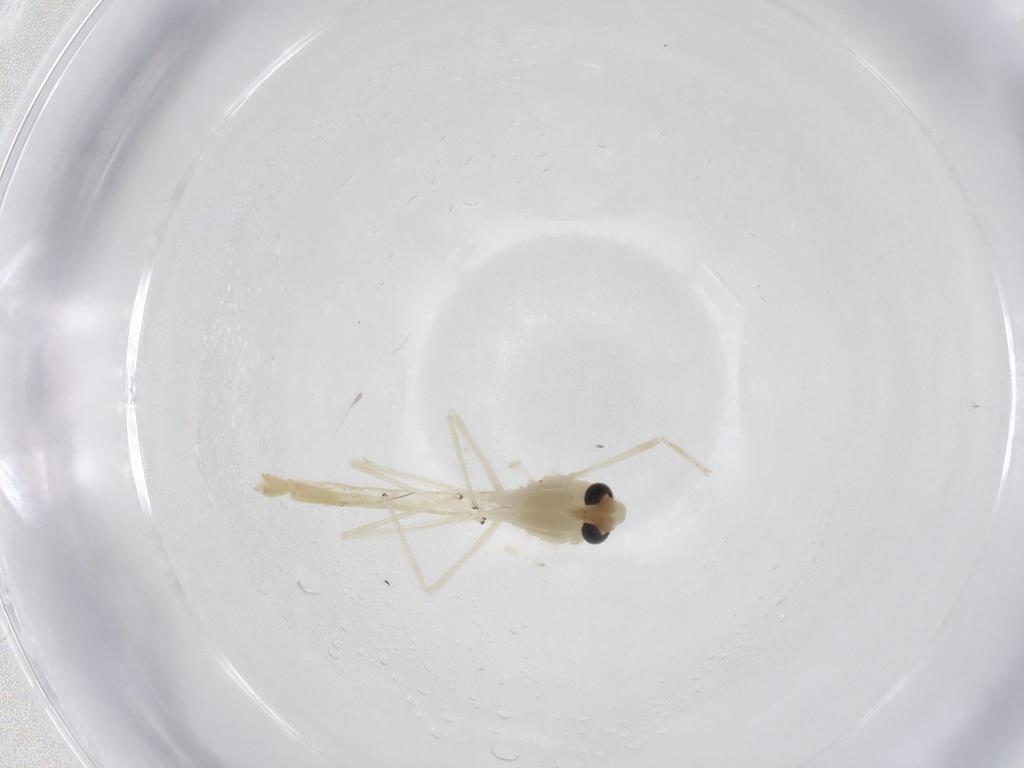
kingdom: Animalia
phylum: Arthropoda
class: Insecta
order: Diptera
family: Chironomidae
